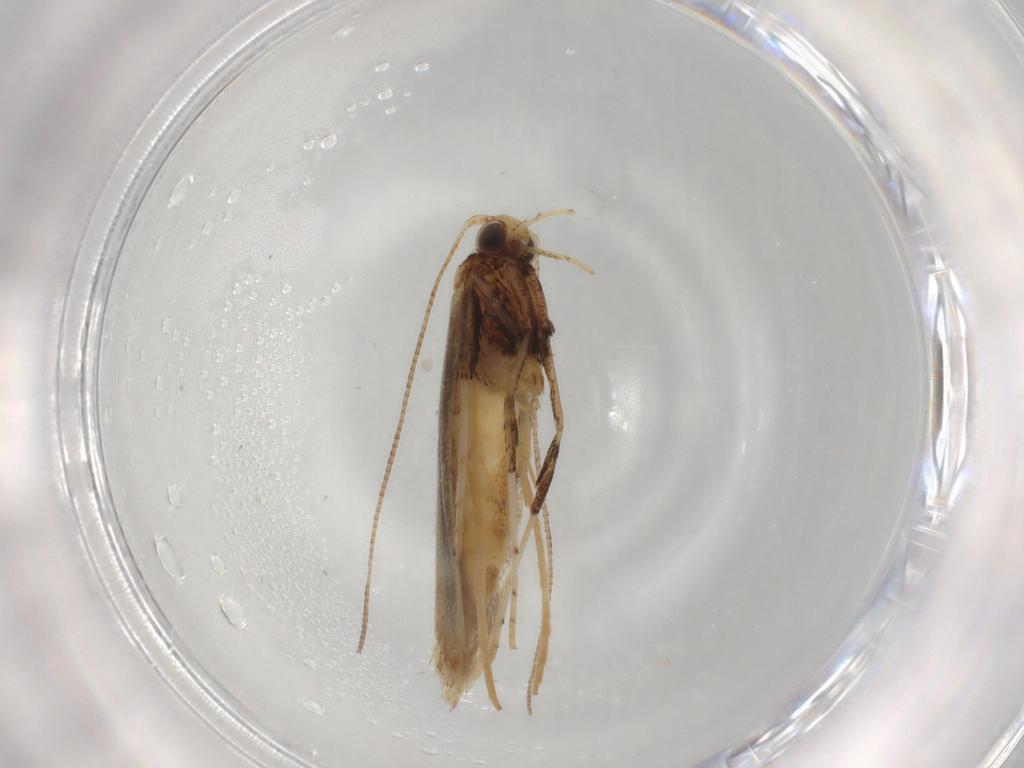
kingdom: Animalia
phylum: Arthropoda
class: Insecta
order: Lepidoptera
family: Gracillariidae
